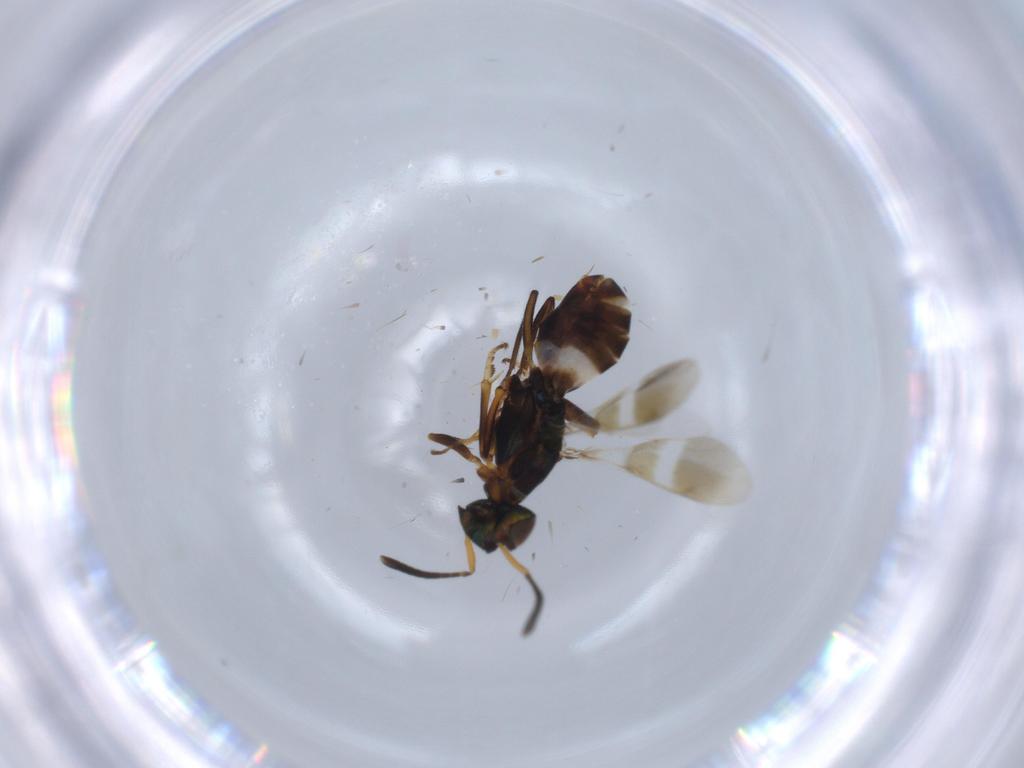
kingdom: Animalia
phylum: Arthropoda
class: Insecta
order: Hymenoptera
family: Eupelmidae
